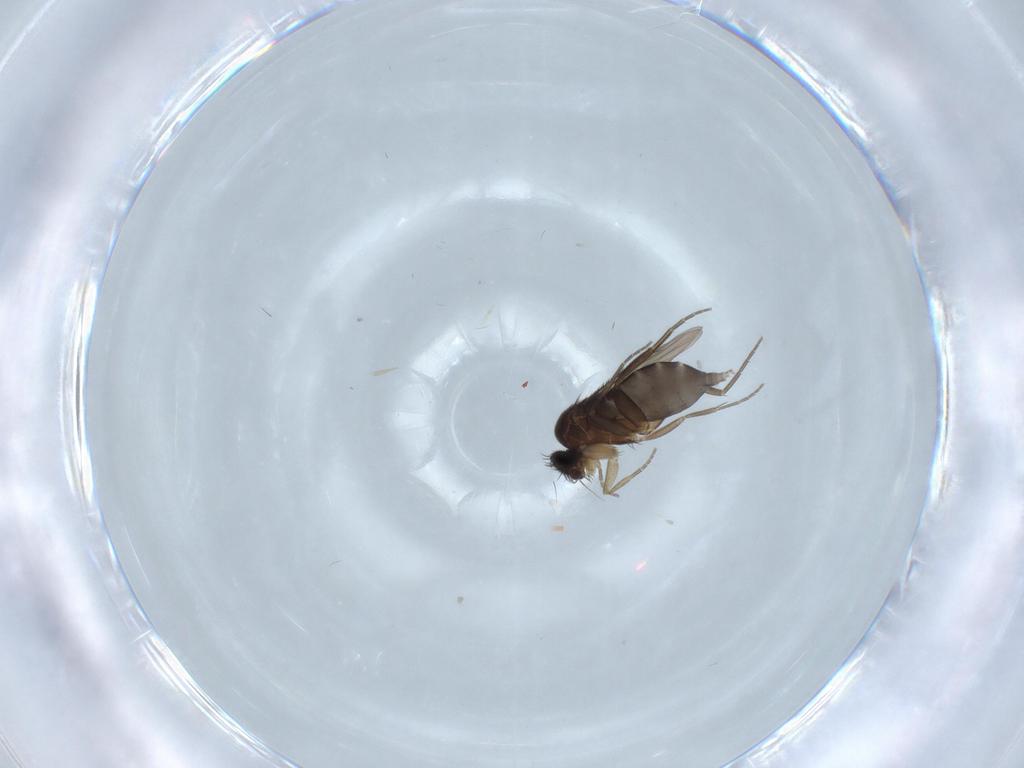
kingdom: Animalia
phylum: Arthropoda
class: Insecta
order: Diptera
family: Phoridae
